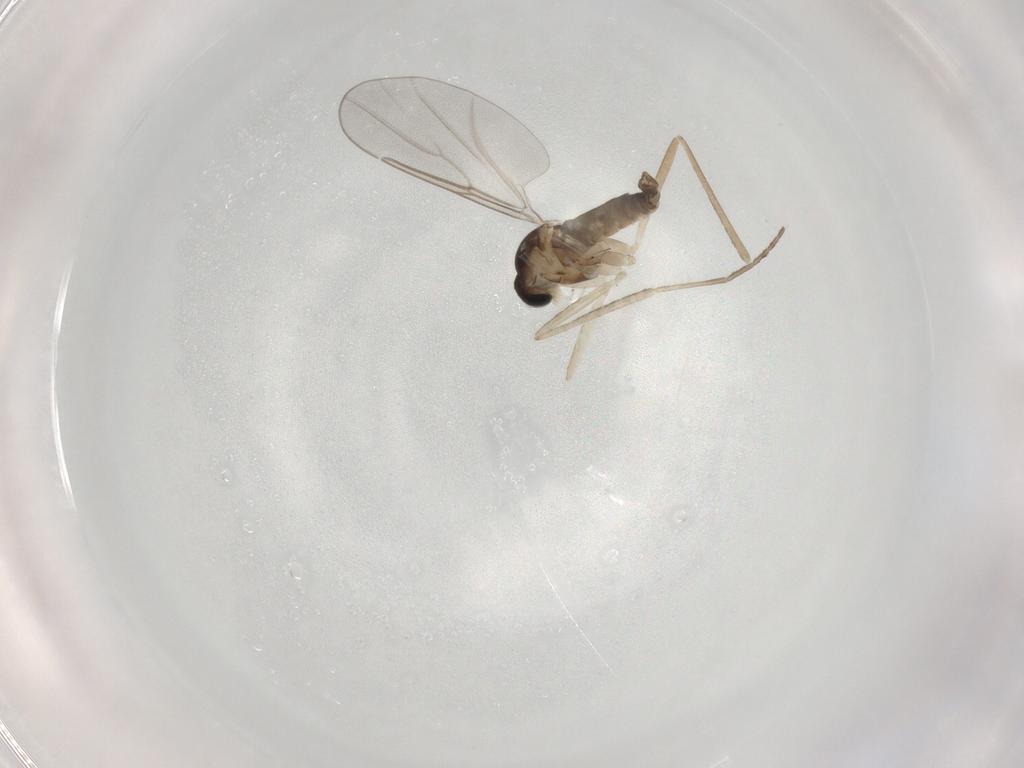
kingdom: Animalia
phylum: Arthropoda
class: Insecta
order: Diptera
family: Cecidomyiidae
